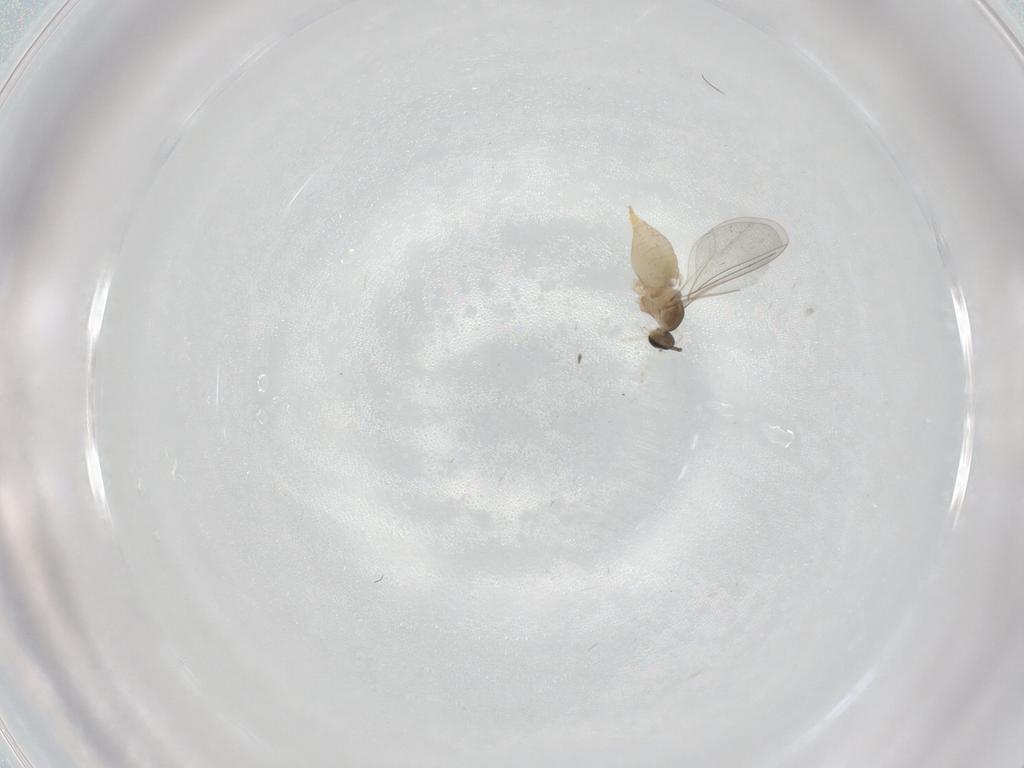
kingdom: Animalia
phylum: Arthropoda
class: Insecta
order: Diptera
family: Cecidomyiidae
